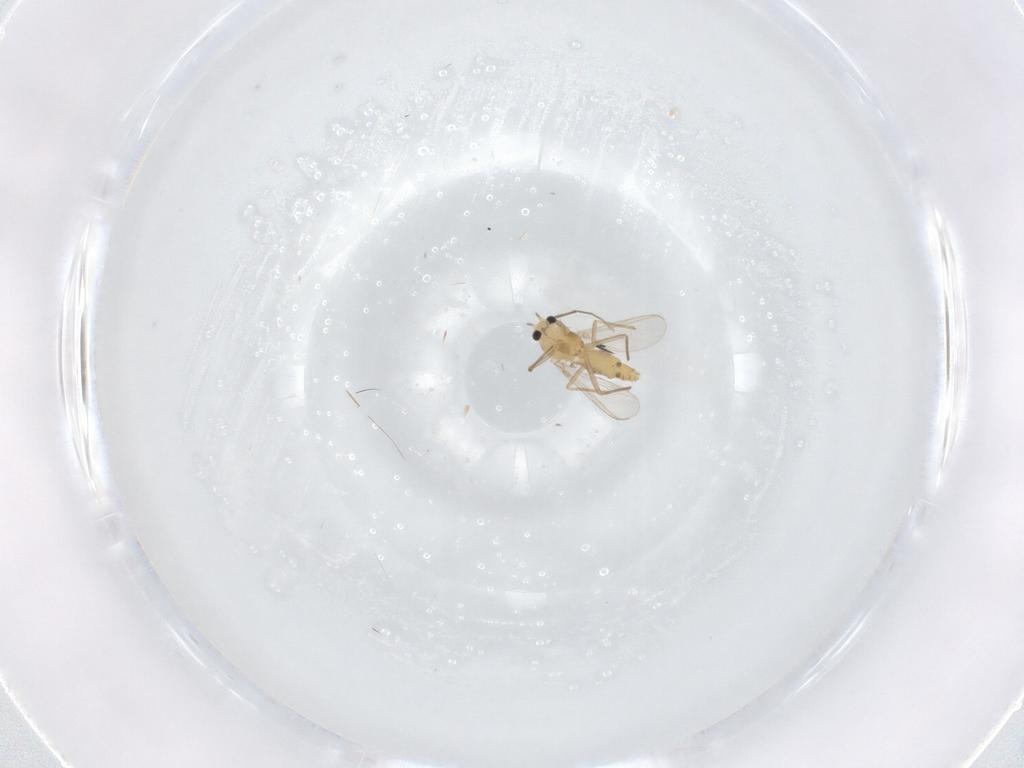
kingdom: Animalia
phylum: Arthropoda
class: Insecta
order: Diptera
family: Chironomidae
